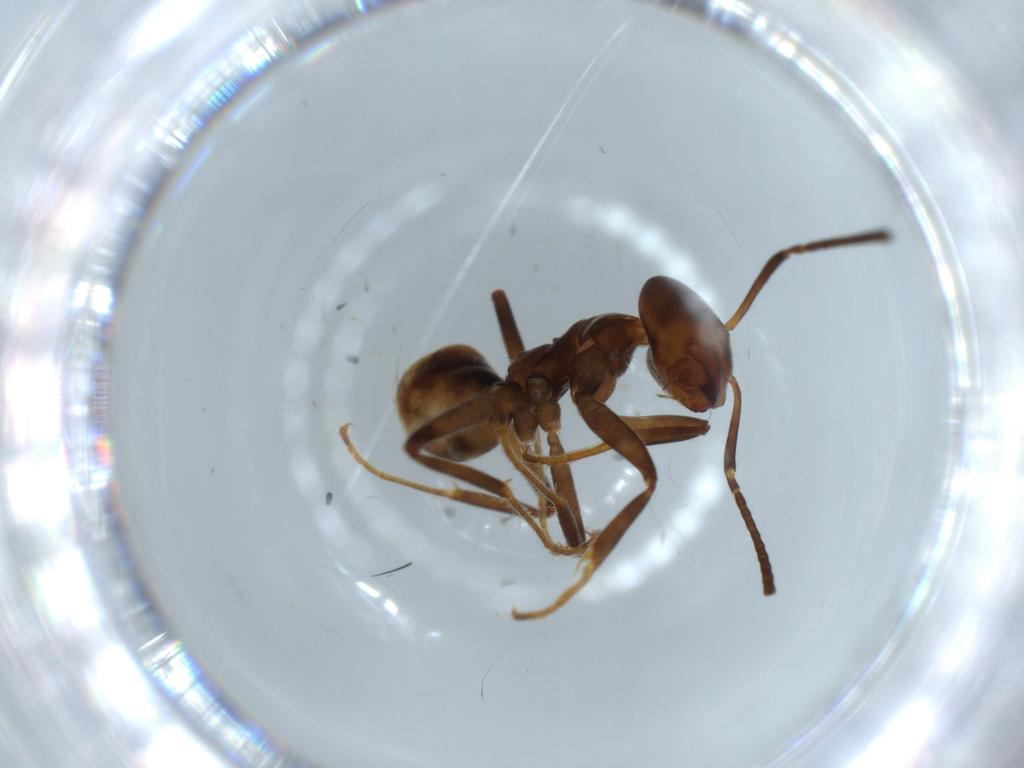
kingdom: Animalia
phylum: Arthropoda
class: Insecta
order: Hymenoptera
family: Formicidae
